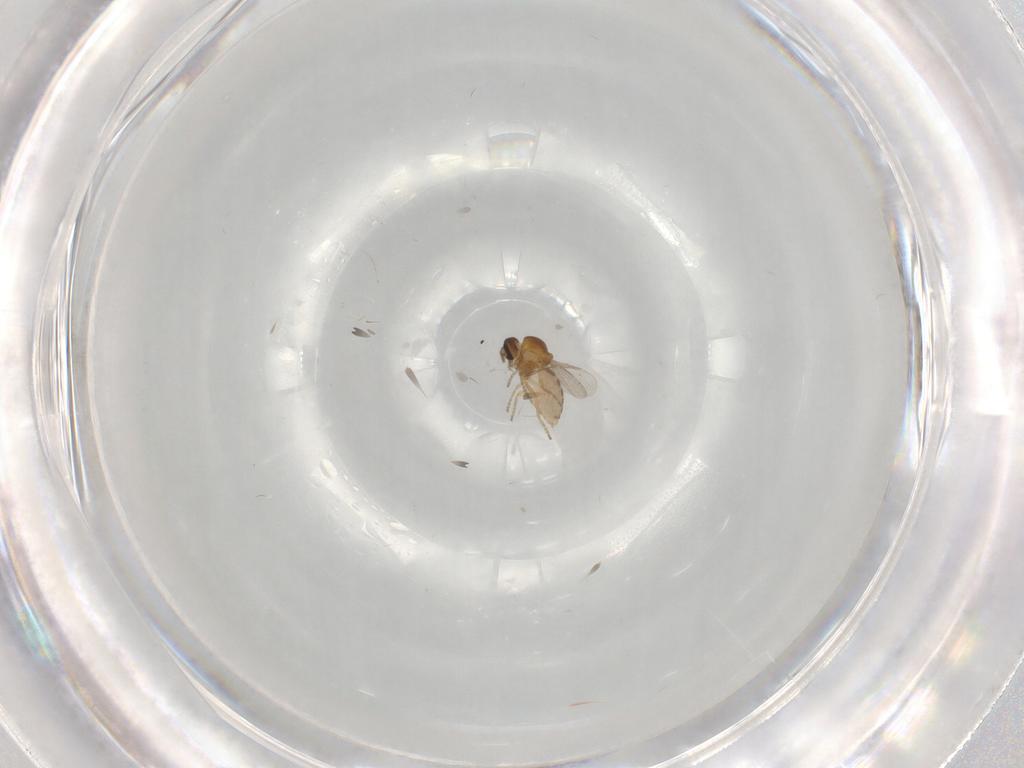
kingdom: Animalia
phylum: Arthropoda
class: Insecta
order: Diptera
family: Ceratopogonidae
